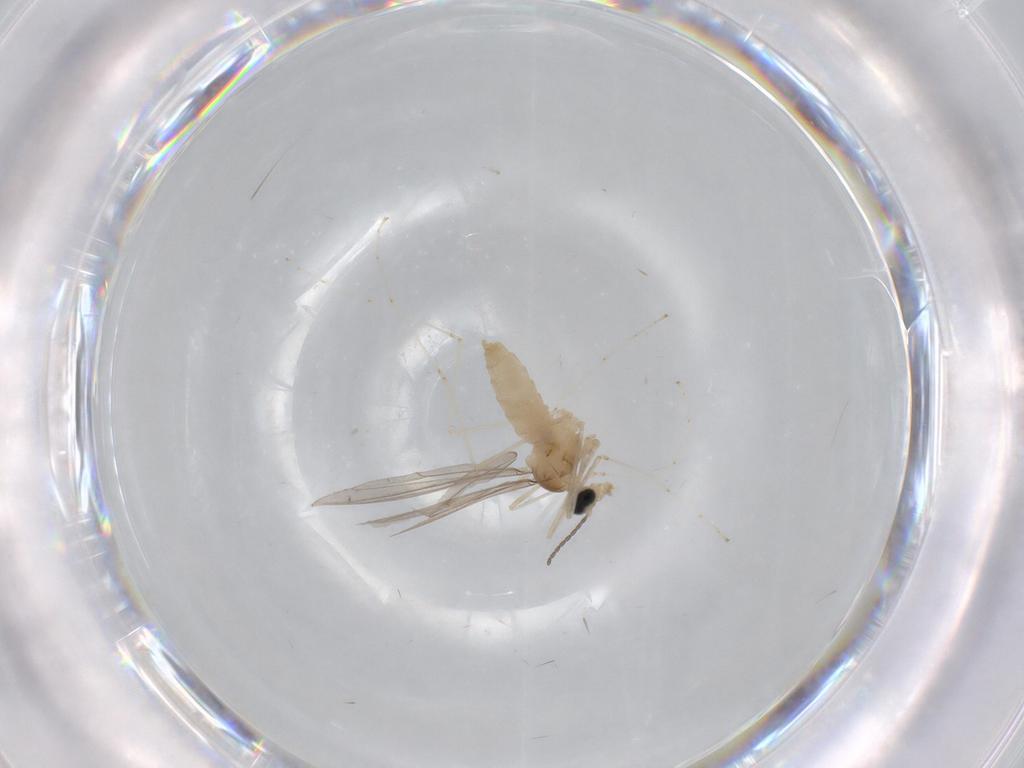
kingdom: Animalia
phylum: Arthropoda
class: Insecta
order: Diptera
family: Cecidomyiidae
